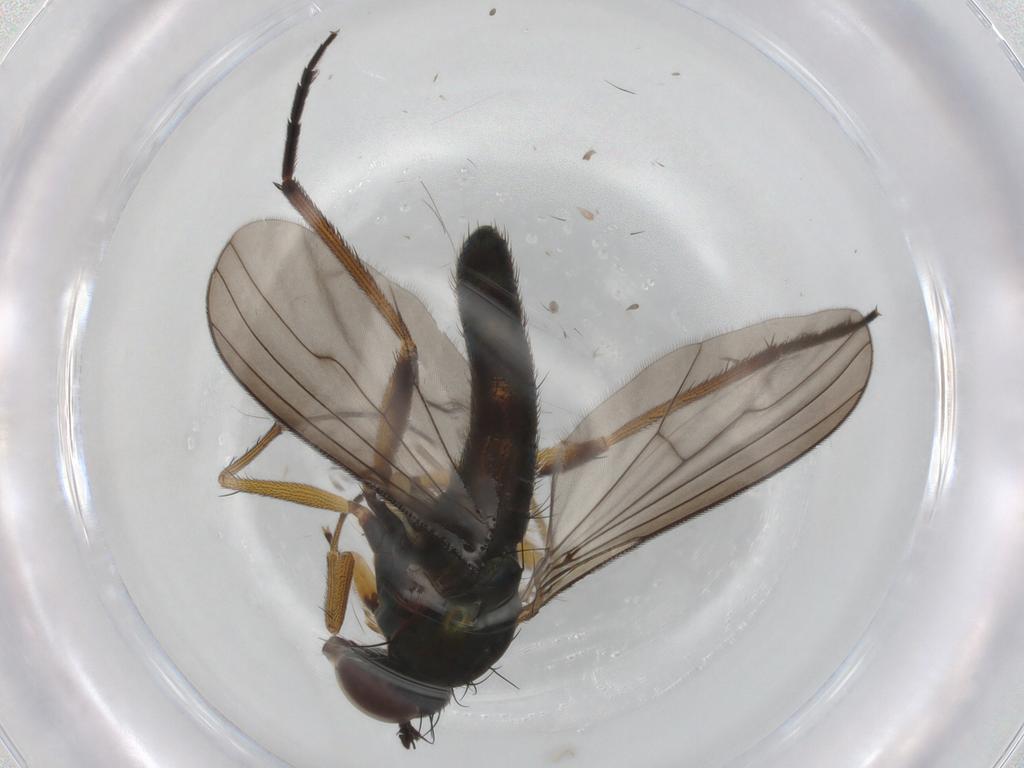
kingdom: Animalia
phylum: Arthropoda
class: Insecta
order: Diptera
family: Dolichopodidae
